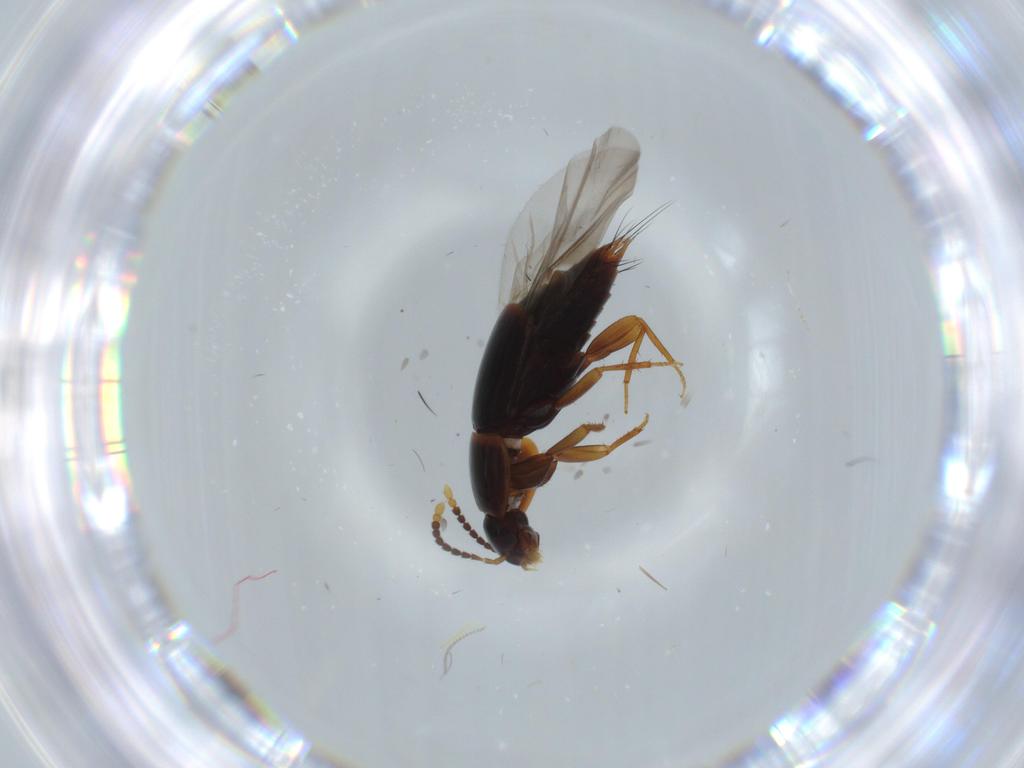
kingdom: Animalia
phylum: Arthropoda
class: Insecta
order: Coleoptera
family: Staphylinidae
